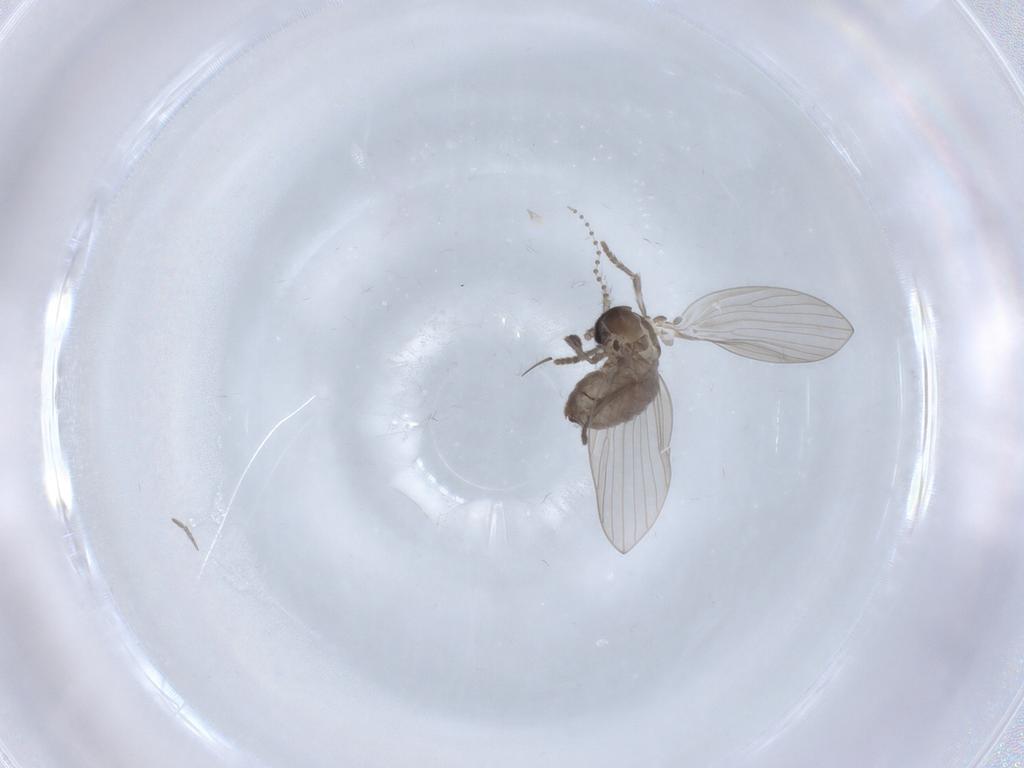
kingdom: Animalia
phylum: Arthropoda
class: Insecta
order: Diptera
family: Psychodidae
